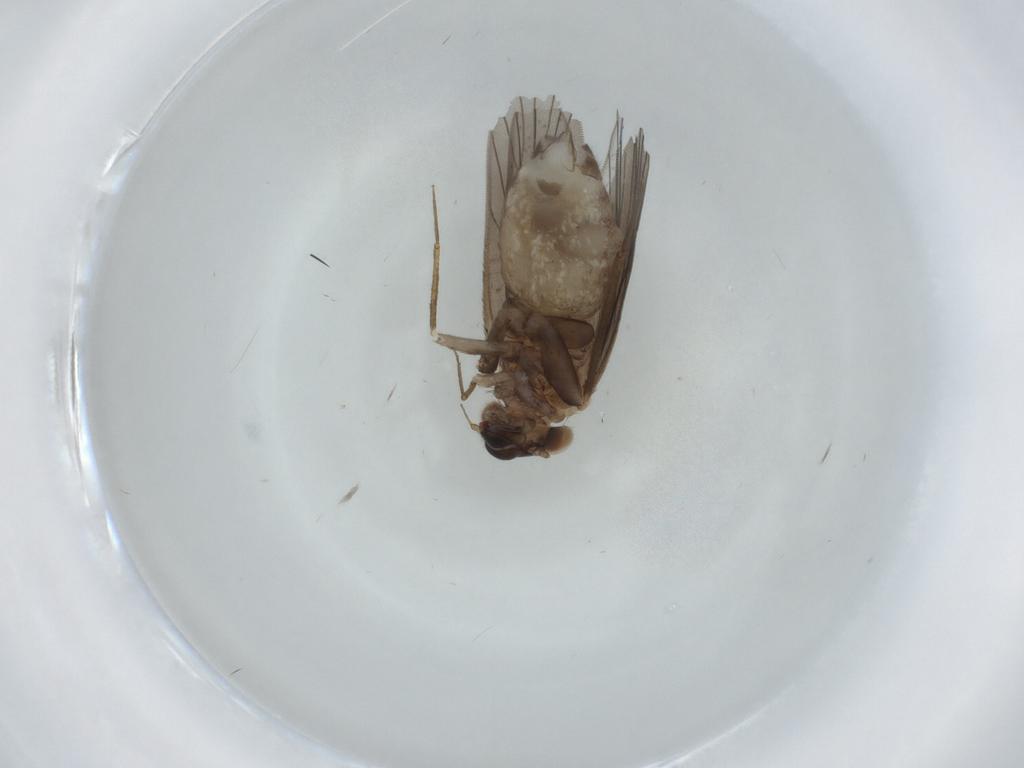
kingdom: Animalia
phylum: Arthropoda
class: Insecta
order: Psocodea
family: Lepidopsocidae
